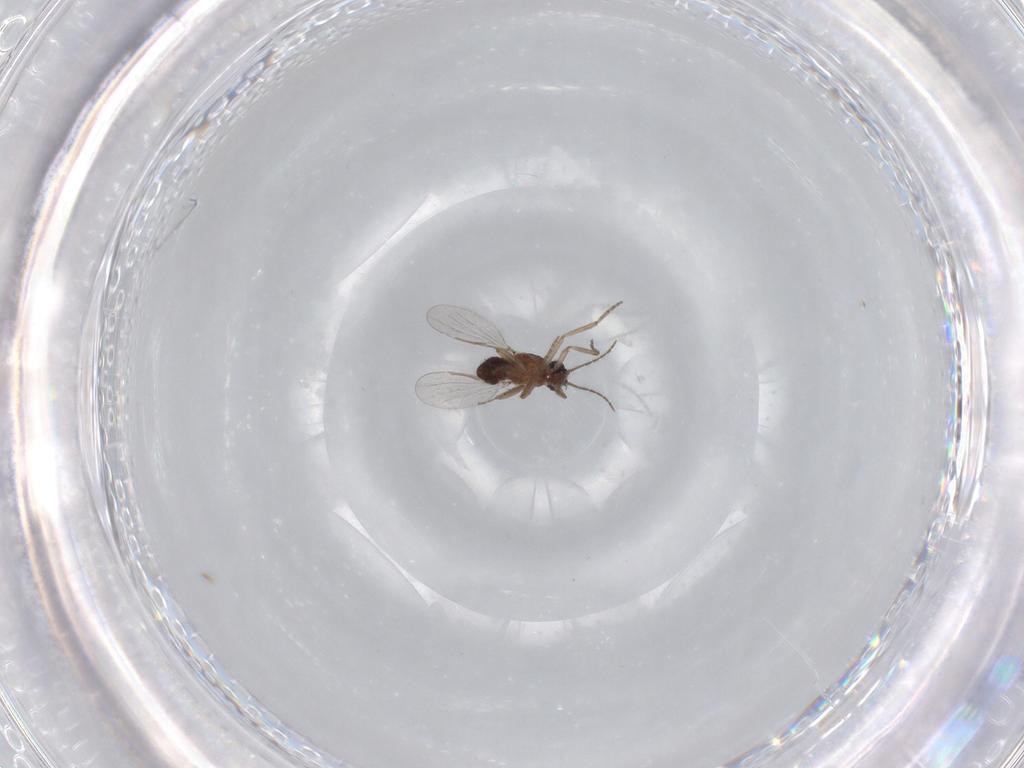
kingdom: Animalia
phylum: Arthropoda
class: Insecta
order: Diptera
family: Ceratopogonidae
